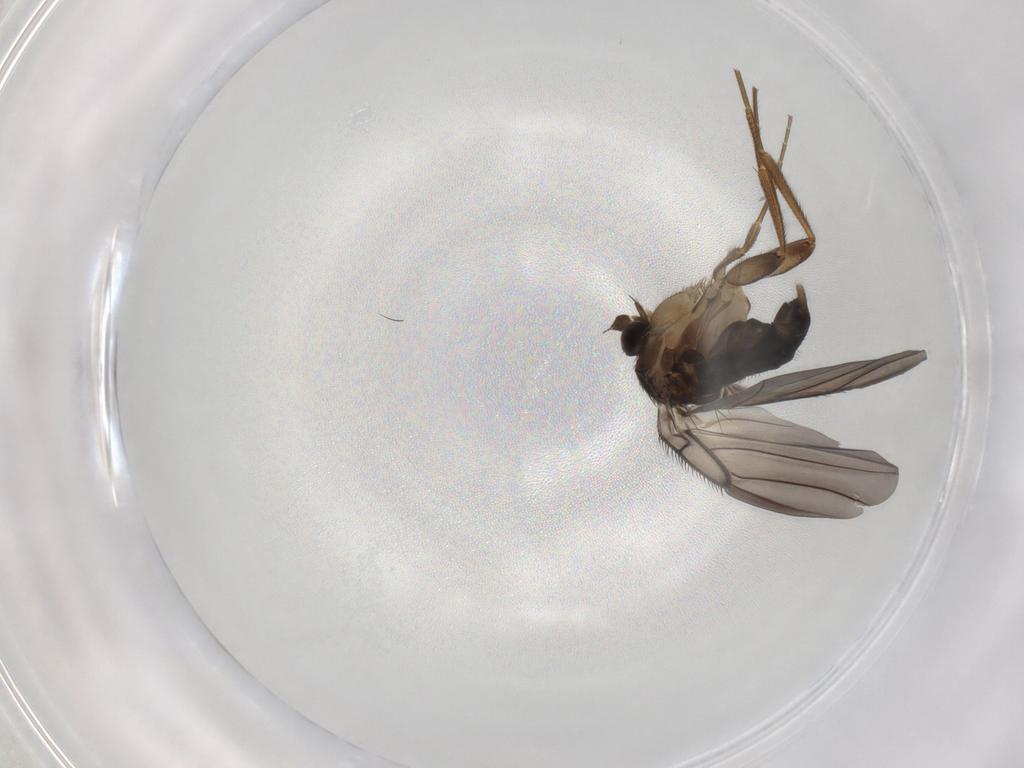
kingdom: Animalia
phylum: Arthropoda
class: Insecta
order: Diptera
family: Phoridae
